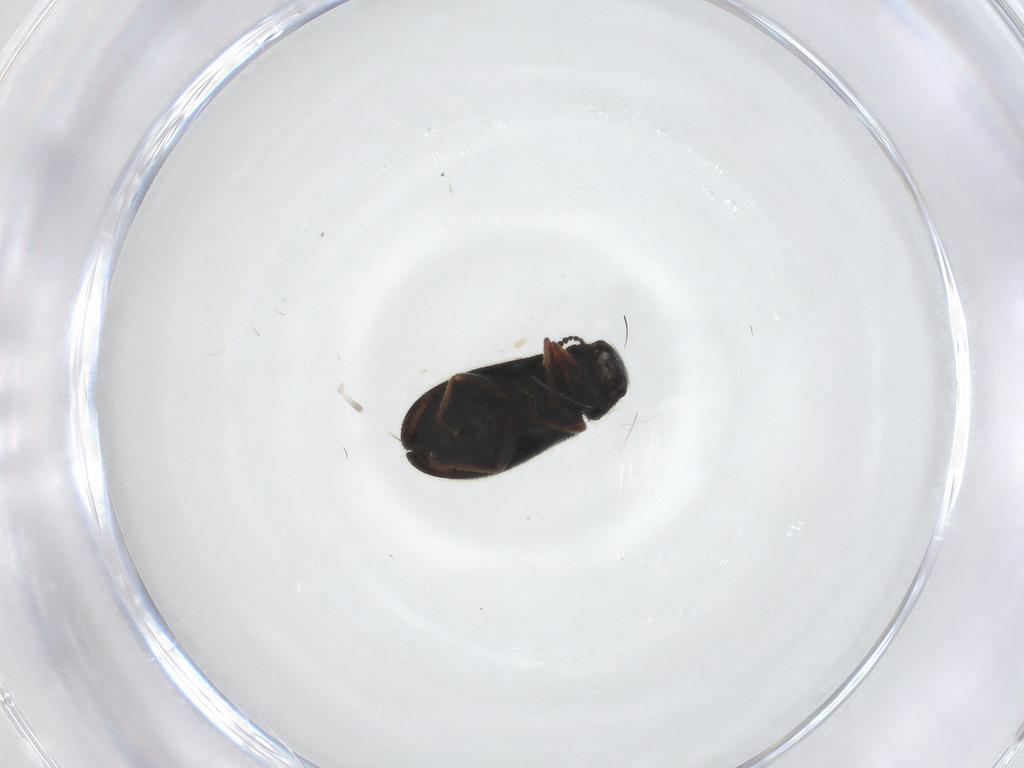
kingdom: Animalia
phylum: Arthropoda
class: Insecta
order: Coleoptera
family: Melyridae
